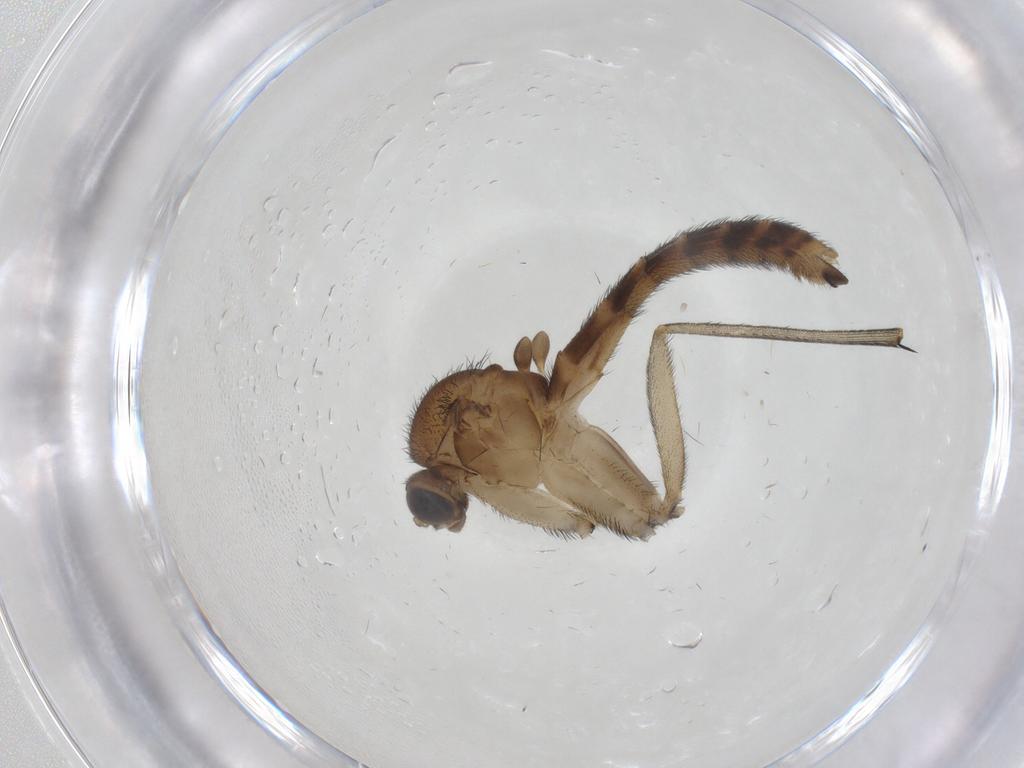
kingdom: Animalia
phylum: Arthropoda
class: Insecta
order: Diptera
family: Keroplatidae
